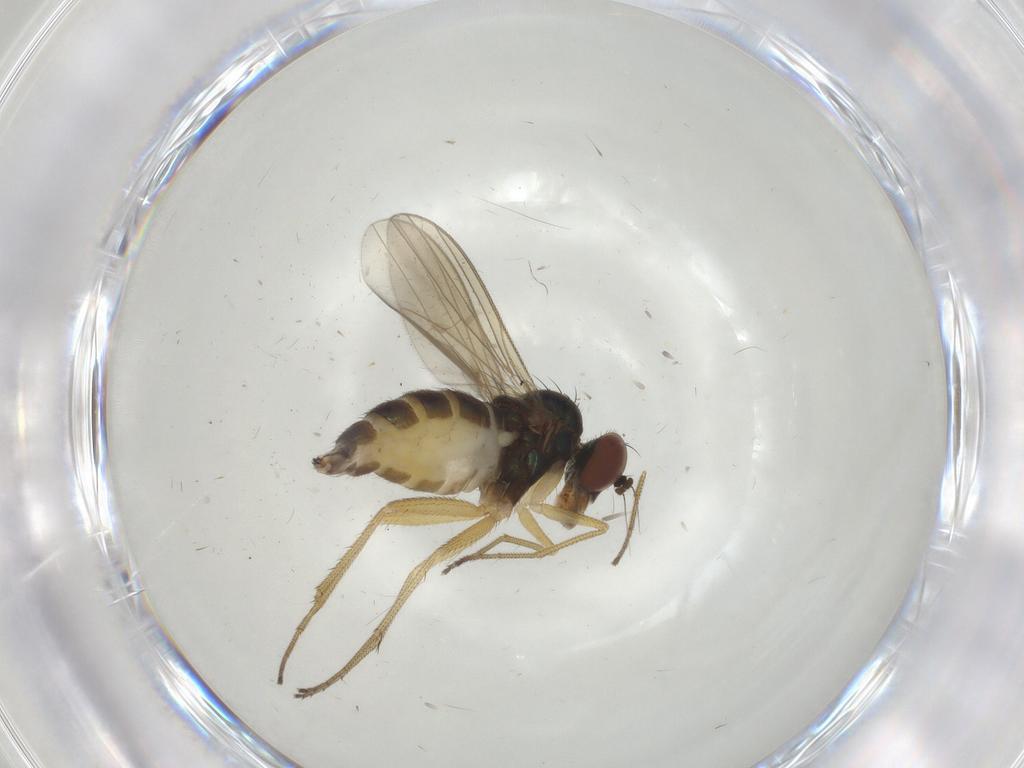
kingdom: Animalia
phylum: Arthropoda
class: Insecta
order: Diptera
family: Dolichopodidae
